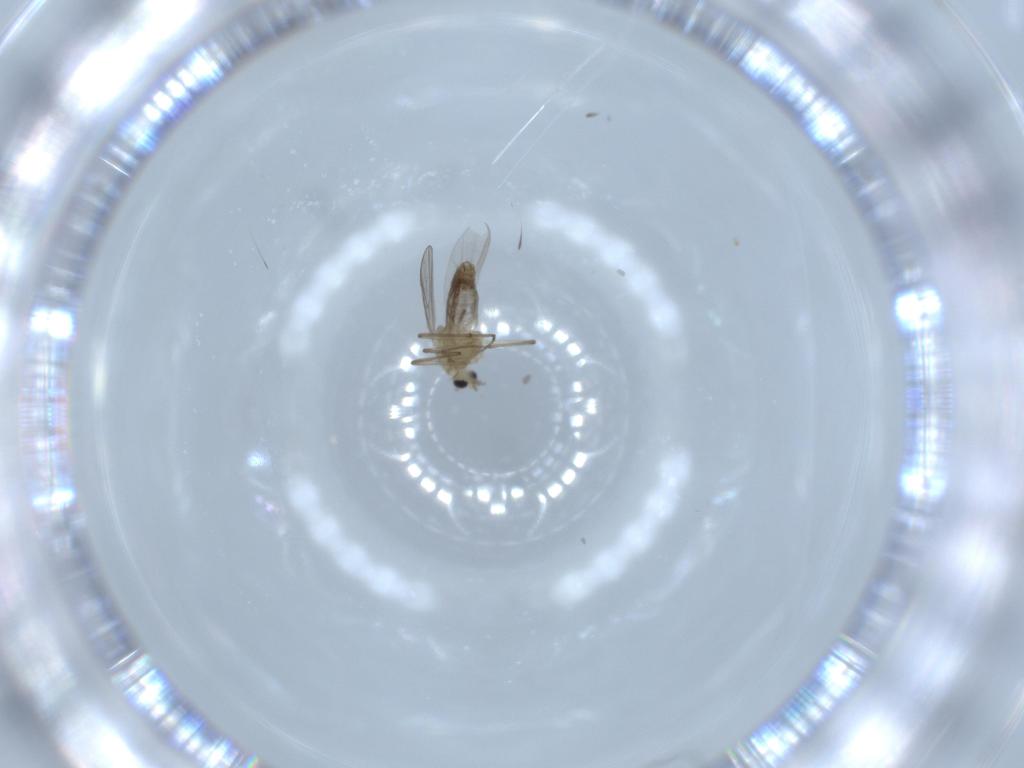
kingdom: Animalia
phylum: Arthropoda
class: Insecta
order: Diptera
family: Chironomidae
